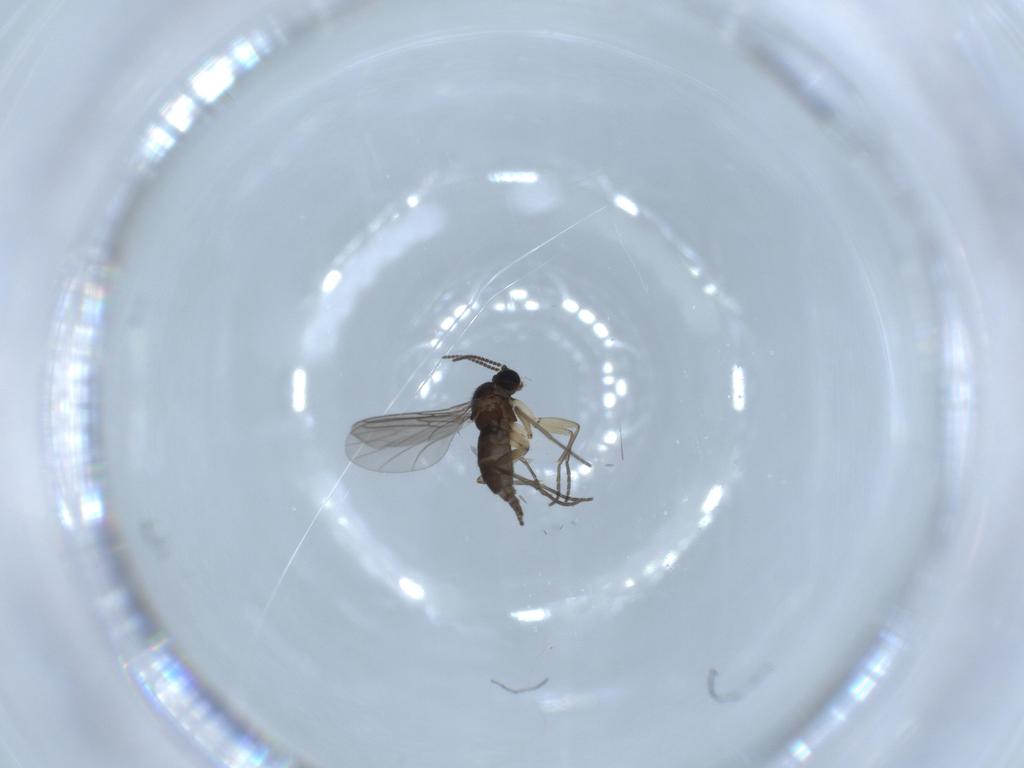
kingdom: Animalia
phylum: Arthropoda
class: Insecta
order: Diptera
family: Sciaridae
